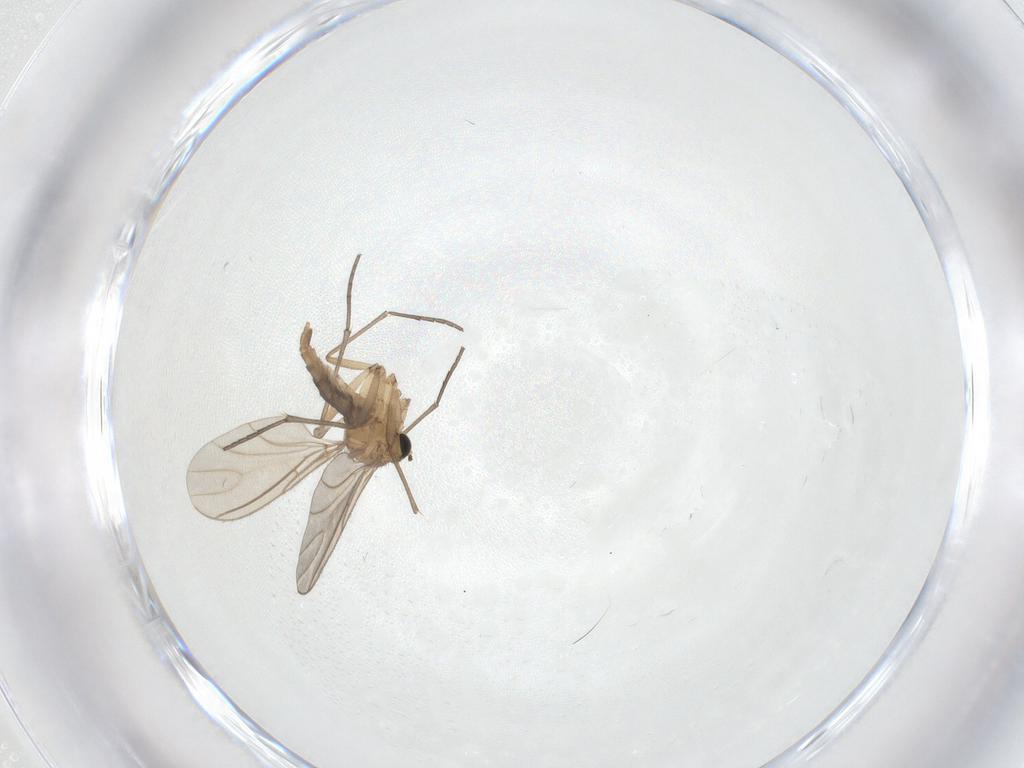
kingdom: Animalia
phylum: Arthropoda
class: Insecta
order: Diptera
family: Sciaridae
